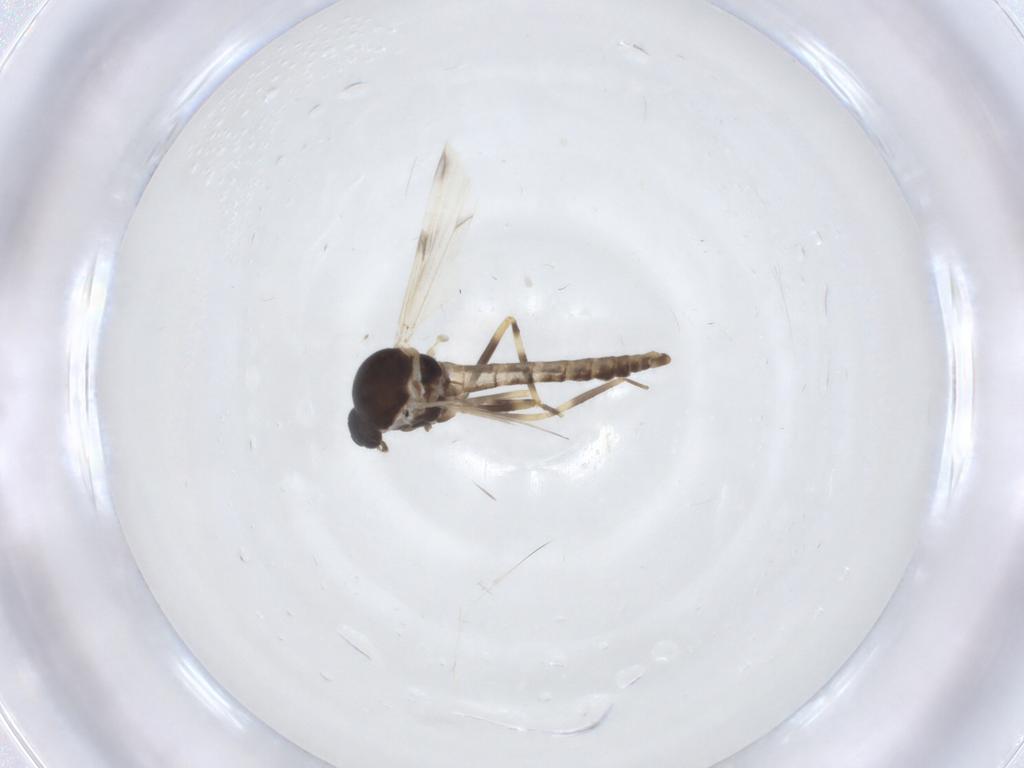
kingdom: Animalia
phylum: Arthropoda
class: Insecta
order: Diptera
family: Ceratopogonidae
